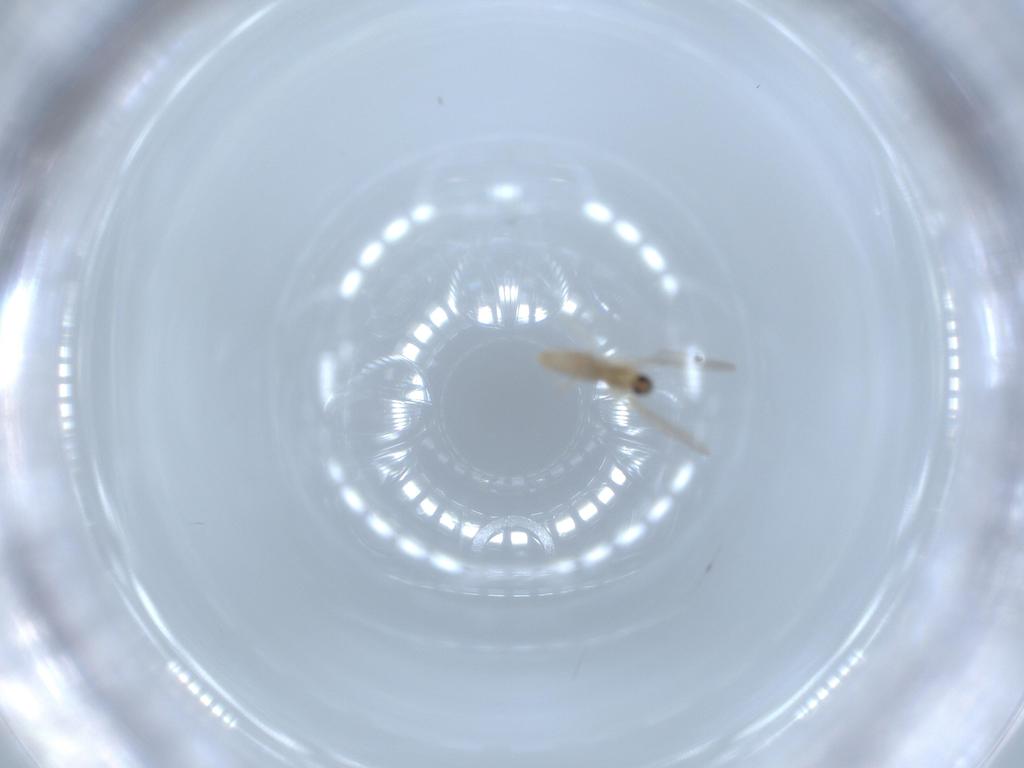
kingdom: Animalia
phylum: Arthropoda
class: Insecta
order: Diptera
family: Cecidomyiidae
